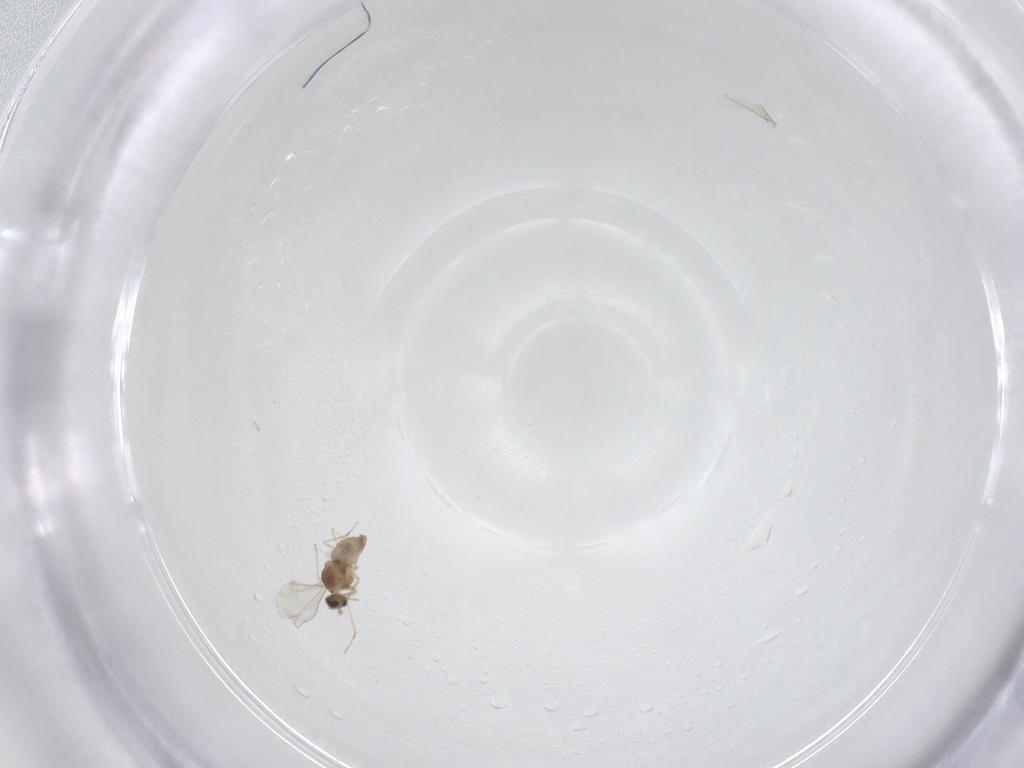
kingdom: Animalia
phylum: Arthropoda
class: Insecta
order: Diptera
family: Cecidomyiidae
